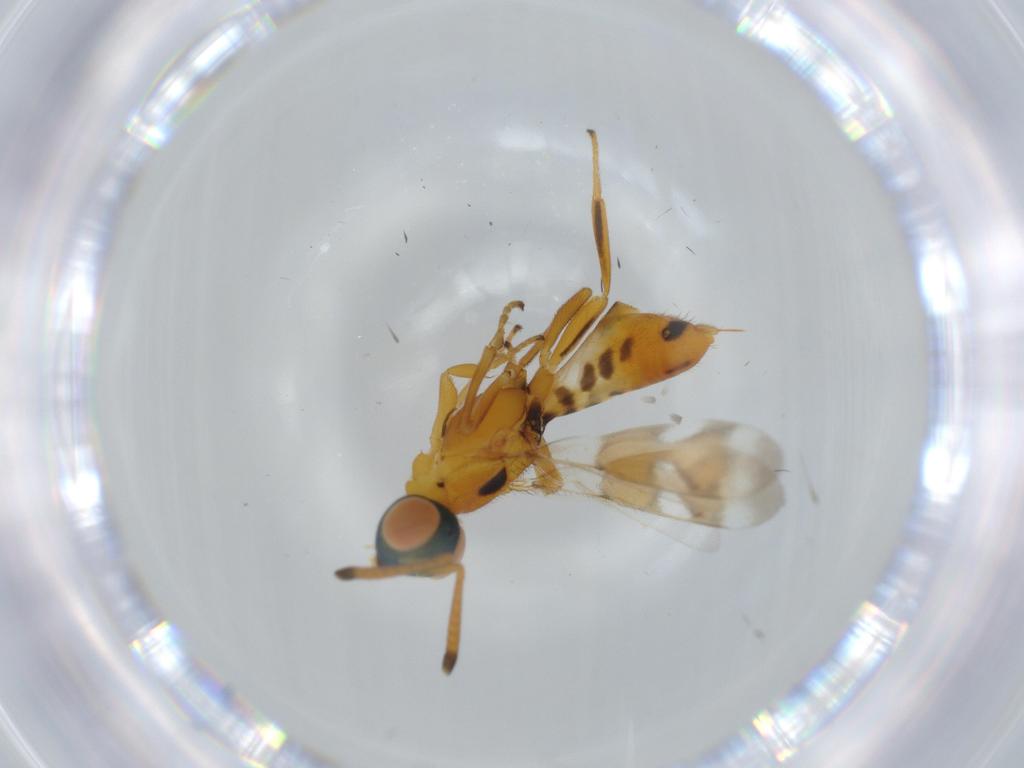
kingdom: Animalia
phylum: Arthropoda
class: Insecta
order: Hymenoptera
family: Eupelmidae
